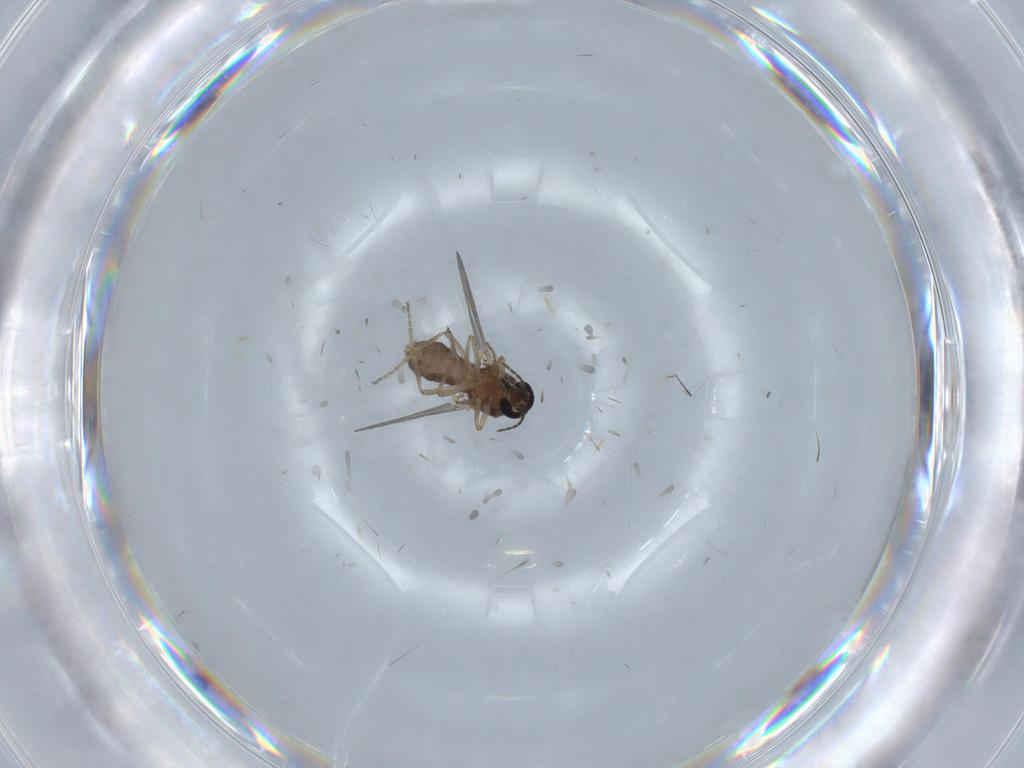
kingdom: Animalia
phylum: Arthropoda
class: Insecta
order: Diptera
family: Ceratopogonidae
